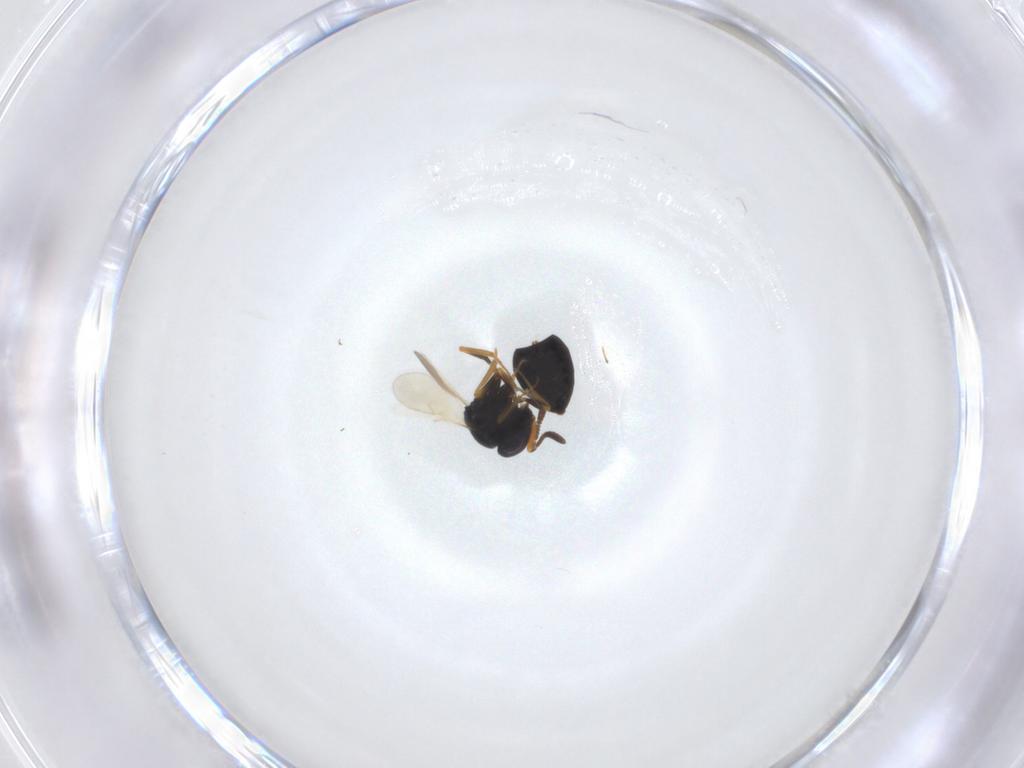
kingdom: Animalia
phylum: Arthropoda
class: Insecta
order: Hymenoptera
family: Scelionidae
